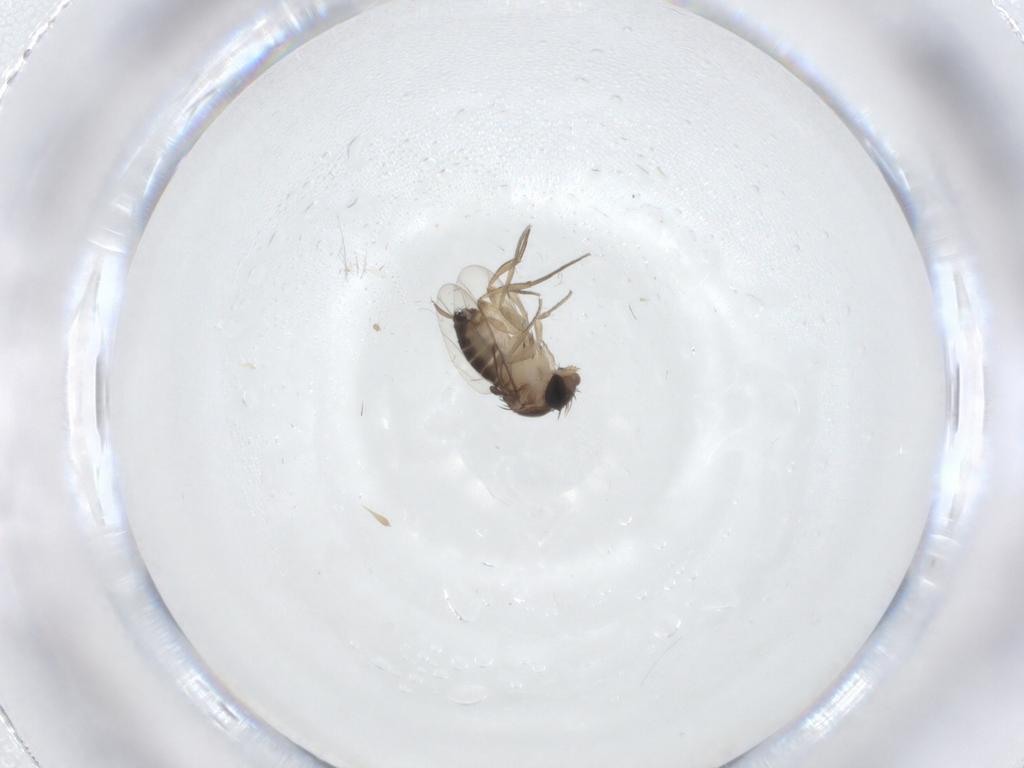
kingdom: Animalia
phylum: Arthropoda
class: Insecta
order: Diptera
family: Phoridae
